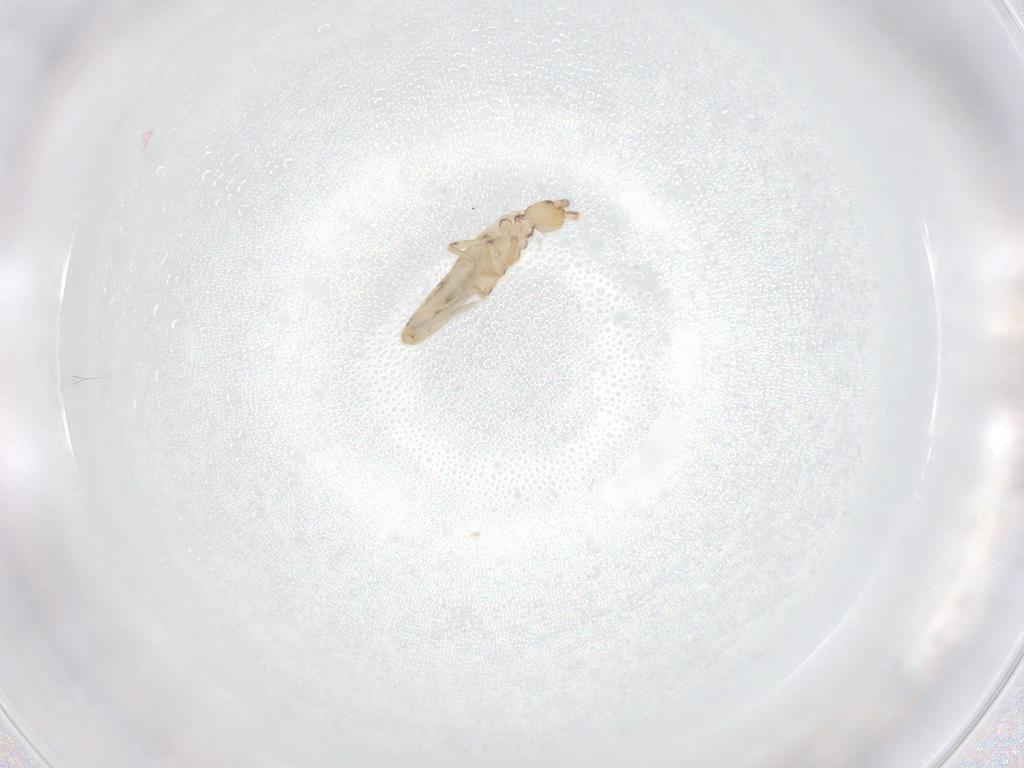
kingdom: Animalia
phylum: Arthropoda
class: Collembola
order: Entomobryomorpha
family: Entomobryidae
